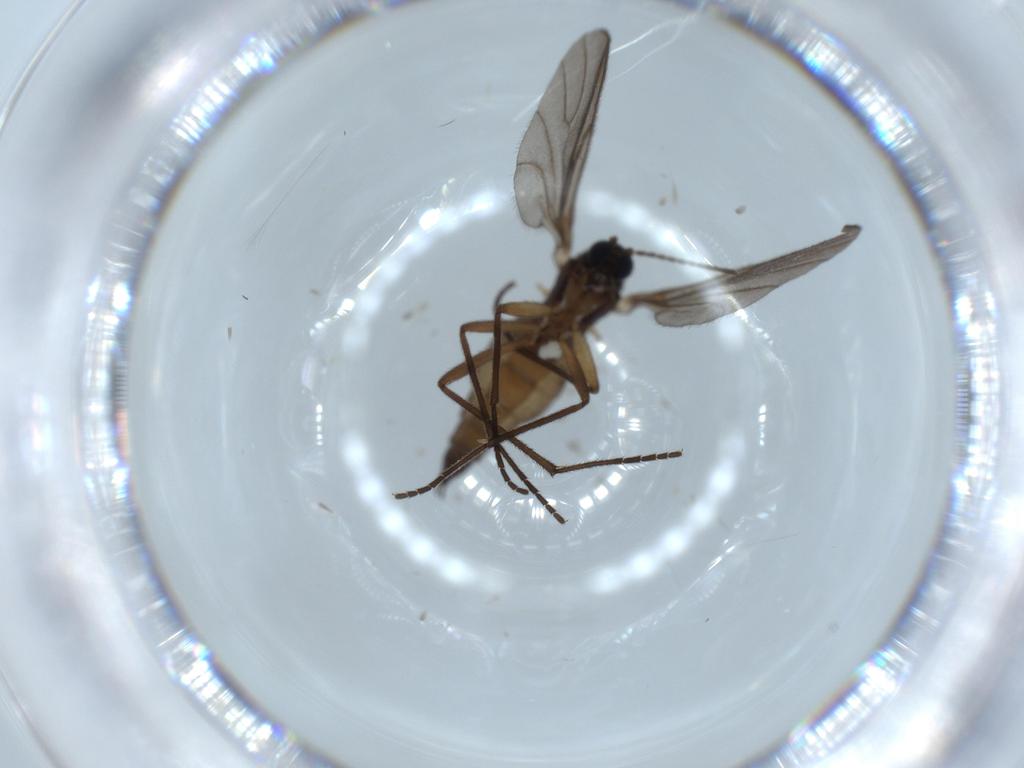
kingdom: Animalia
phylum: Arthropoda
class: Insecta
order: Diptera
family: Sciaridae
